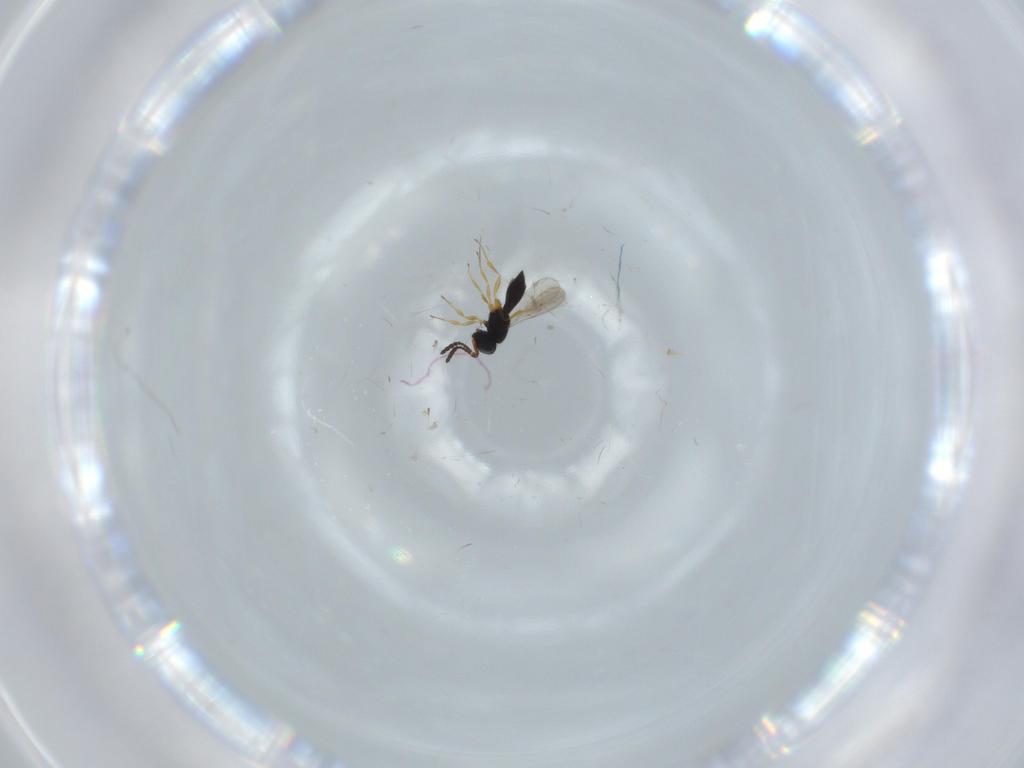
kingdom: Animalia
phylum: Arthropoda
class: Insecta
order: Hymenoptera
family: Scelionidae
